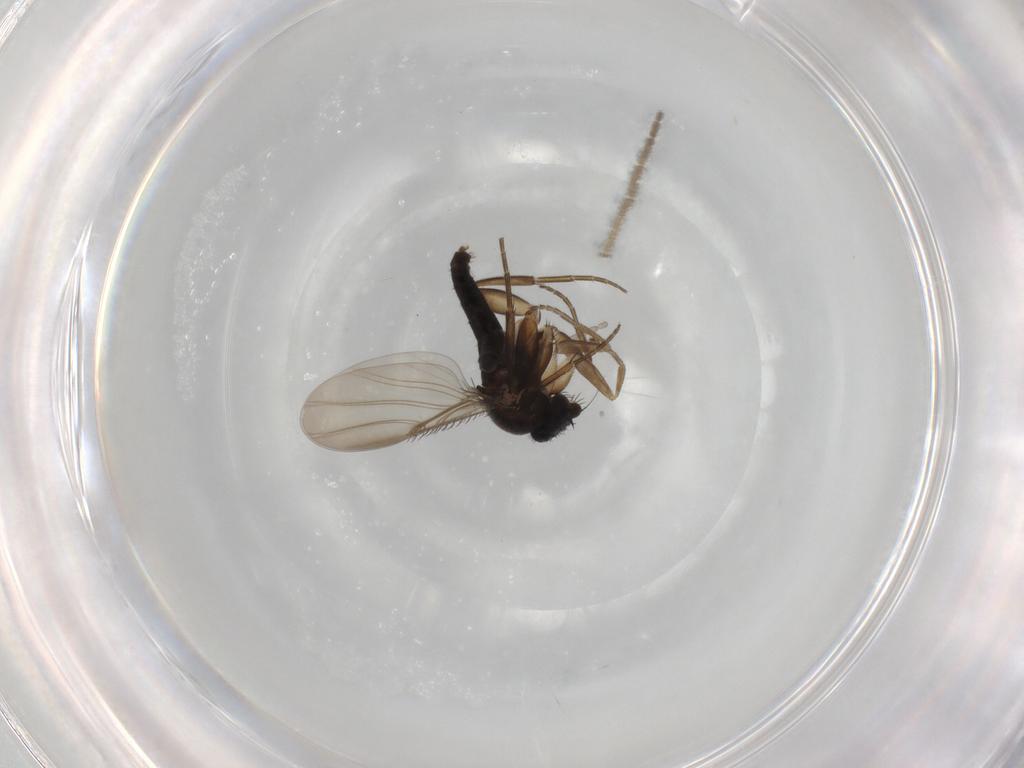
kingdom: Animalia
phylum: Arthropoda
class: Insecta
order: Diptera
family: Phoridae
